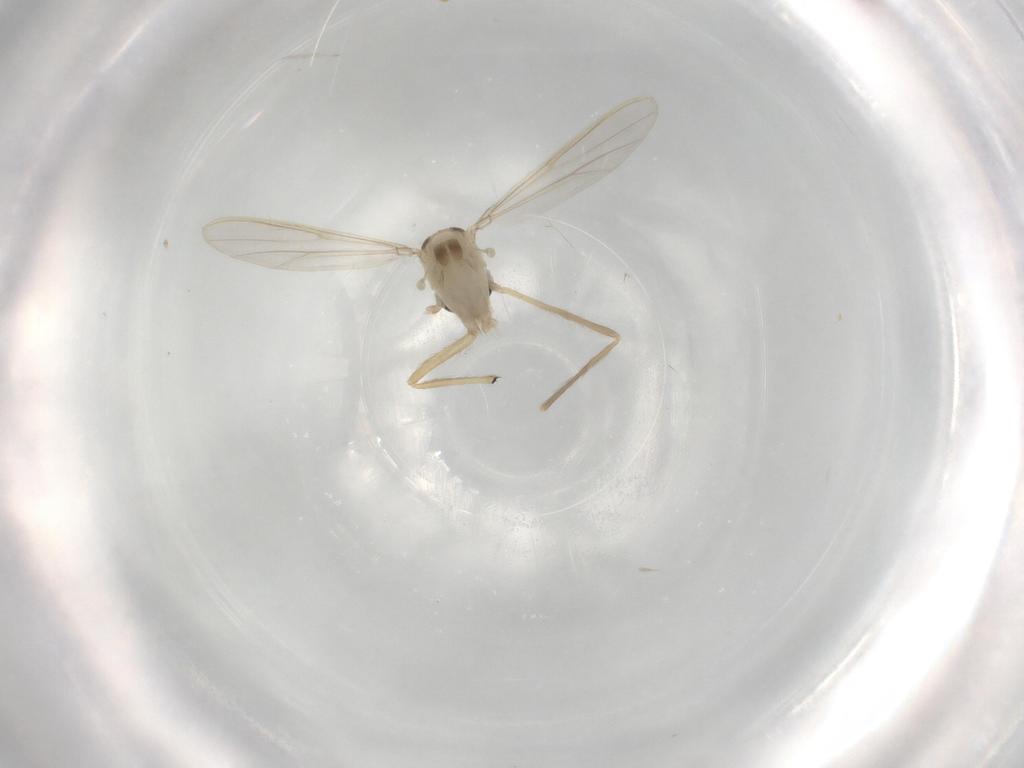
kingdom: Animalia
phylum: Arthropoda
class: Insecta
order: Diptera
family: Chironomidae
